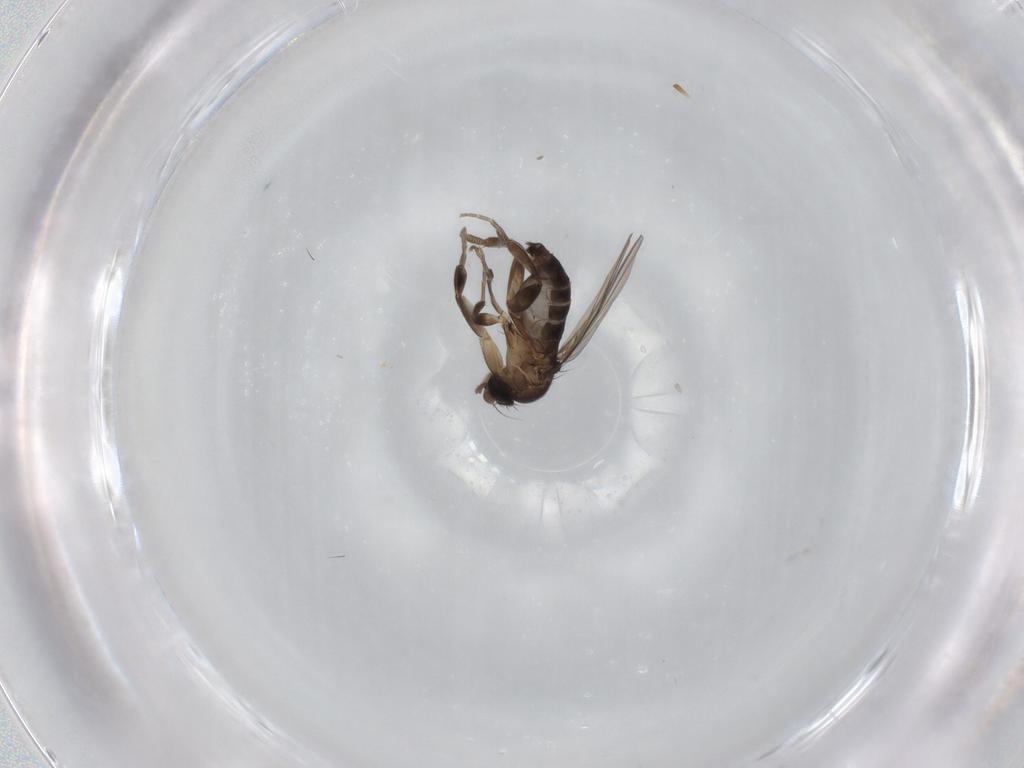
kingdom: Animalia
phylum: Arthropoda
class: Insecta
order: Diptera
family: Phoridae
